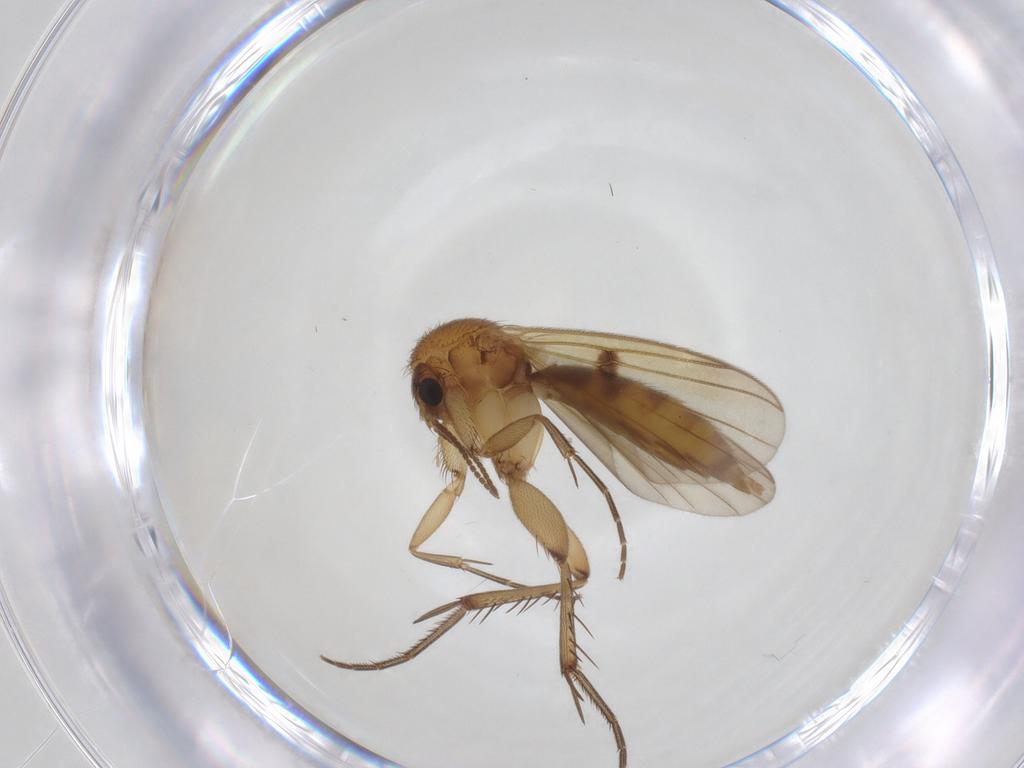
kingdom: Animalia
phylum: Arthropoda
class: Insecta
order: Diptera
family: Cecidomyiidae
